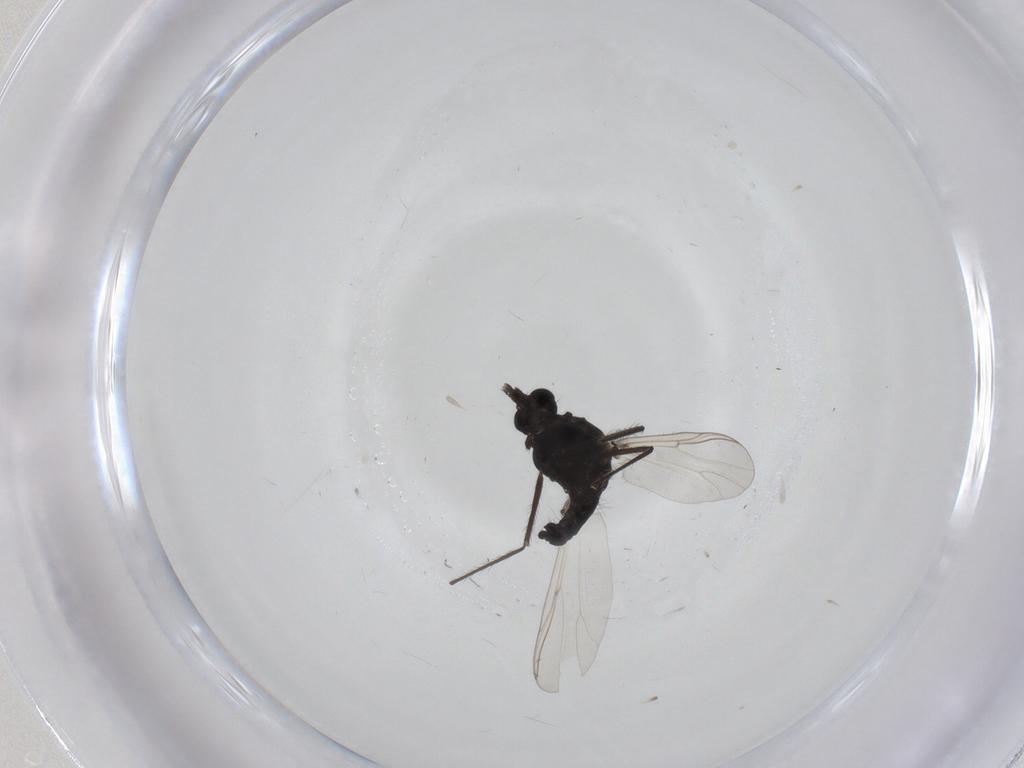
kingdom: Animalia
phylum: Arthropoda
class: Insecta
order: Diptera
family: Chironomidae
